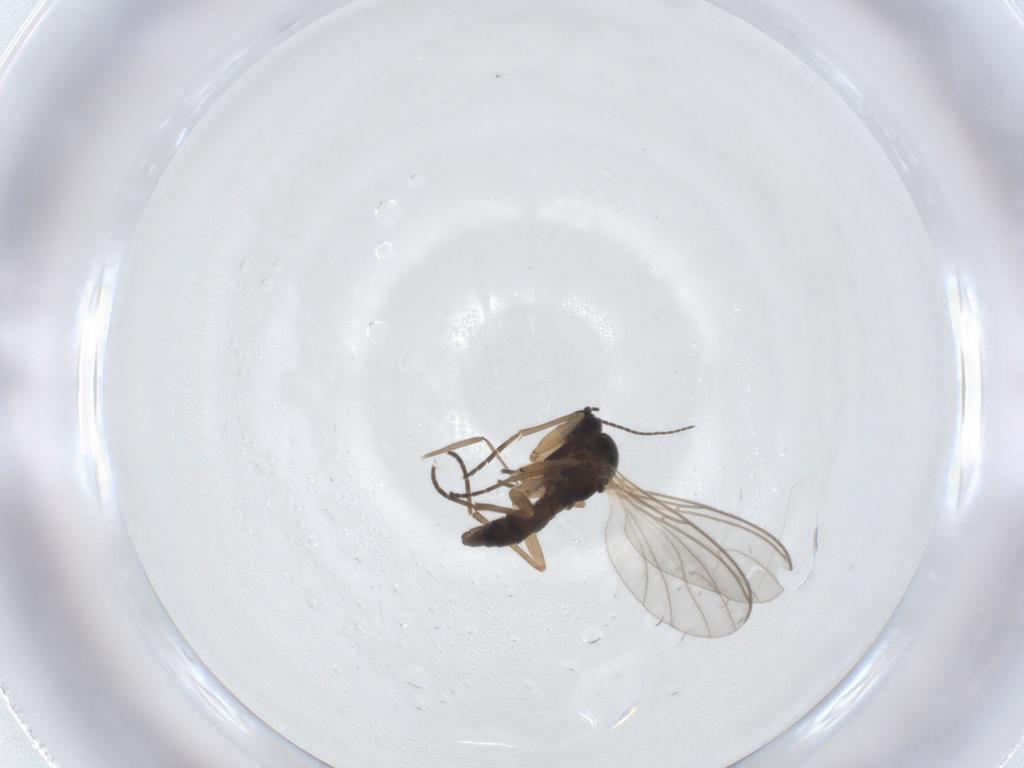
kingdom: Animalia
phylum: Arthropoda
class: Insecta
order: Diptera
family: Chironomidae
